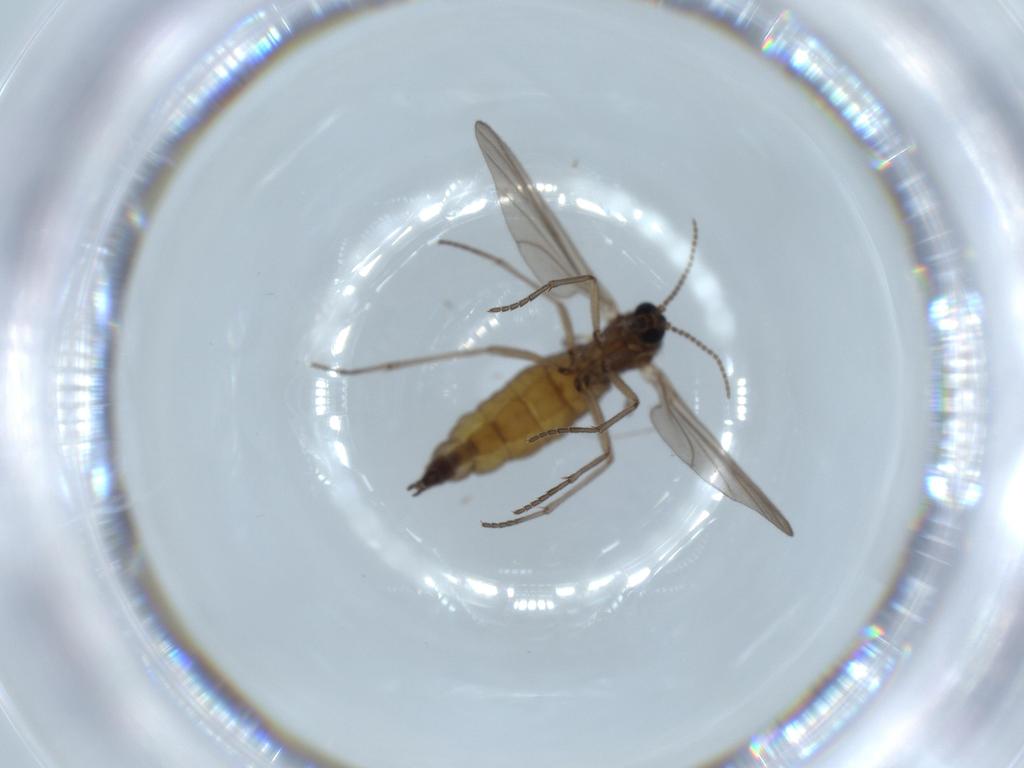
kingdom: Animalia
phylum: Arthropoda
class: Insecta
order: Diptera
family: Sciaridae
